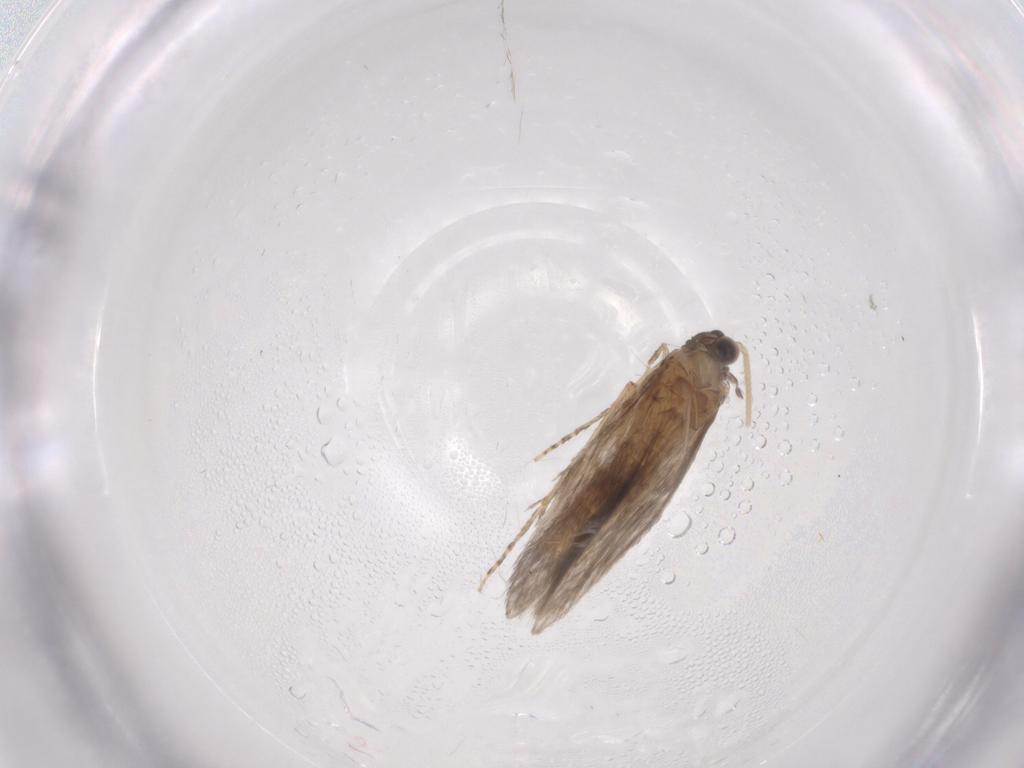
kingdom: Animalia
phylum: Arthropoda
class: Insecta
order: Trichoptera
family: Hydroptilidae
